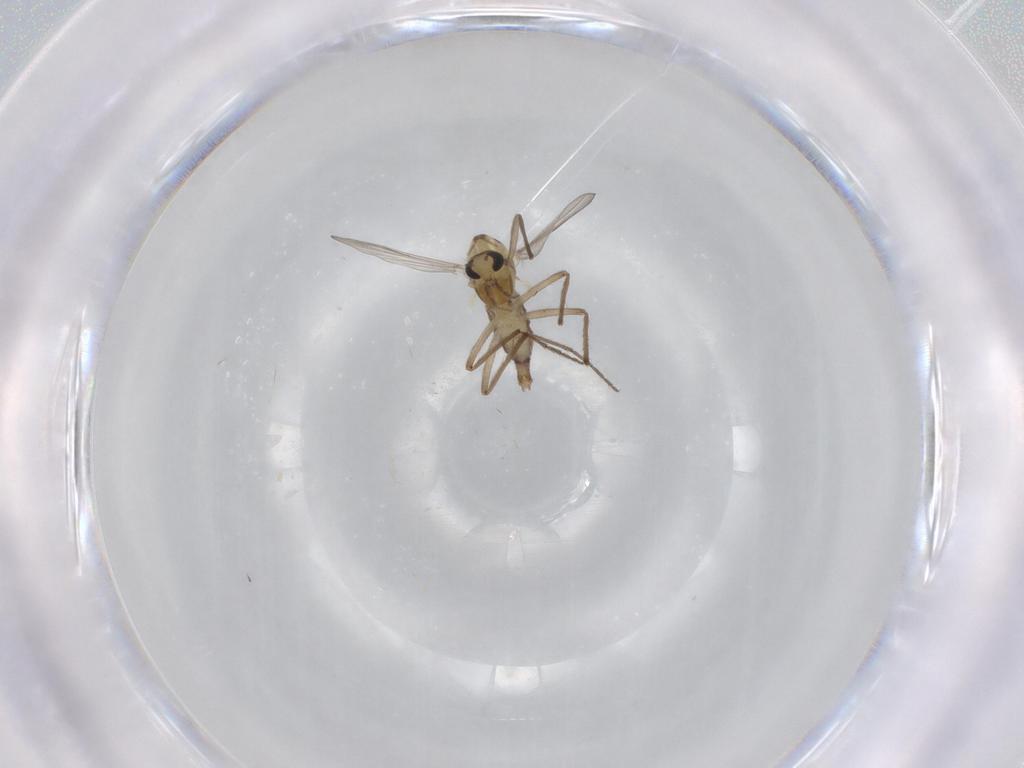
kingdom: Animalia
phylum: Arthropoda
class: Insecta
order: Diptera
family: Chironomidae
